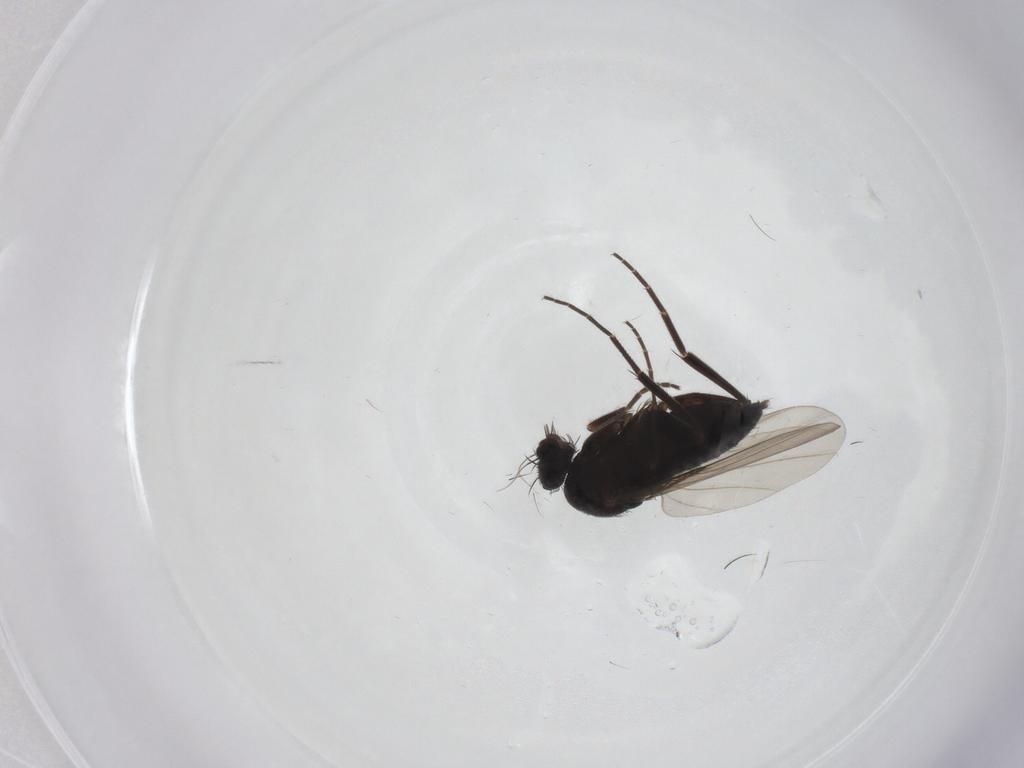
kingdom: Animalia
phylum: Arthropoda
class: Insecta
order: Diptera
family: Phoridae
